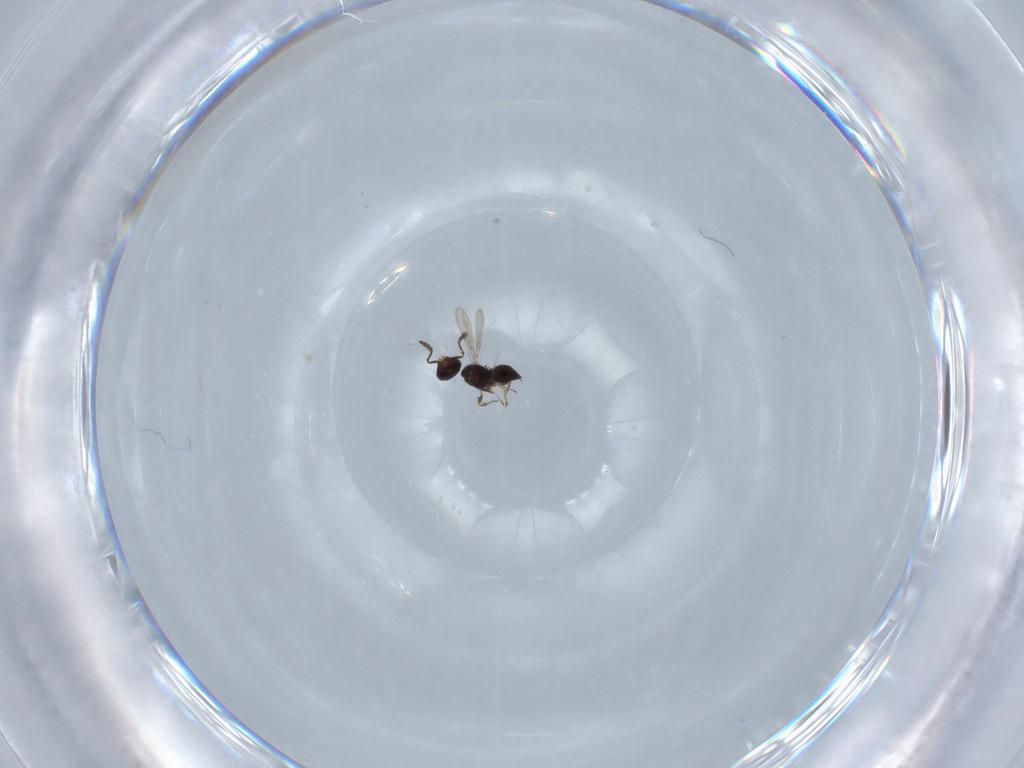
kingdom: Animalia
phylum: Arthropoda
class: Insecta
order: Hymenoptera
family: Scelionidae
